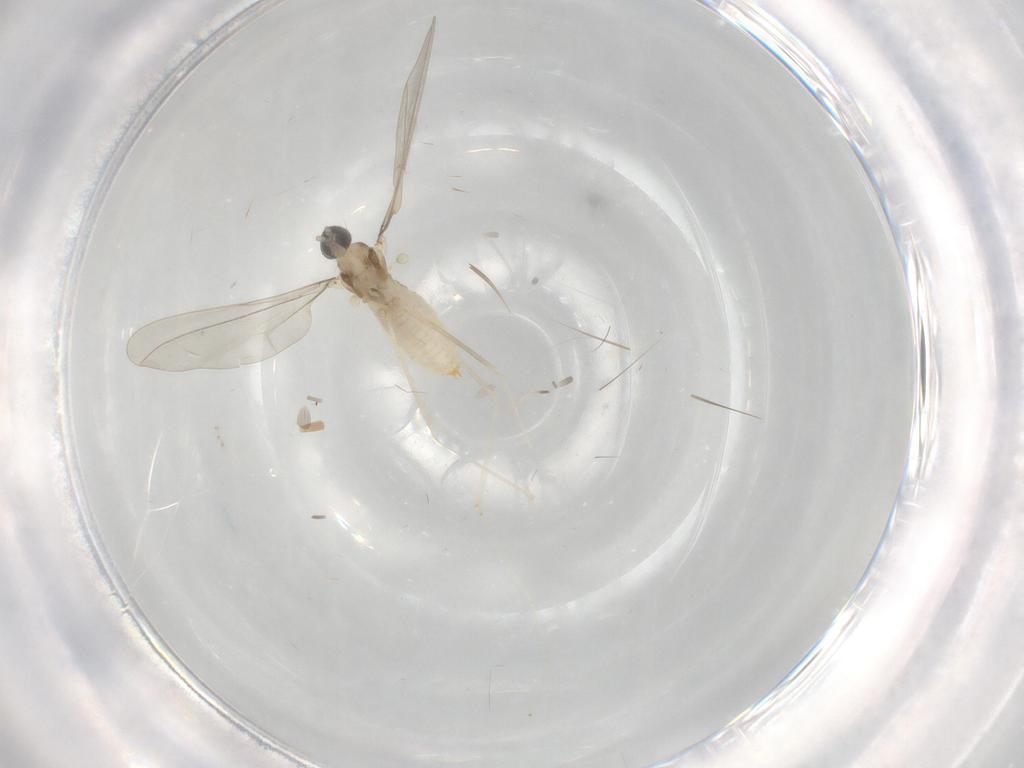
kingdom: Animalia
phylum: Arthropoda
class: Insecta
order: Diptera
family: Cecidomyiidae
